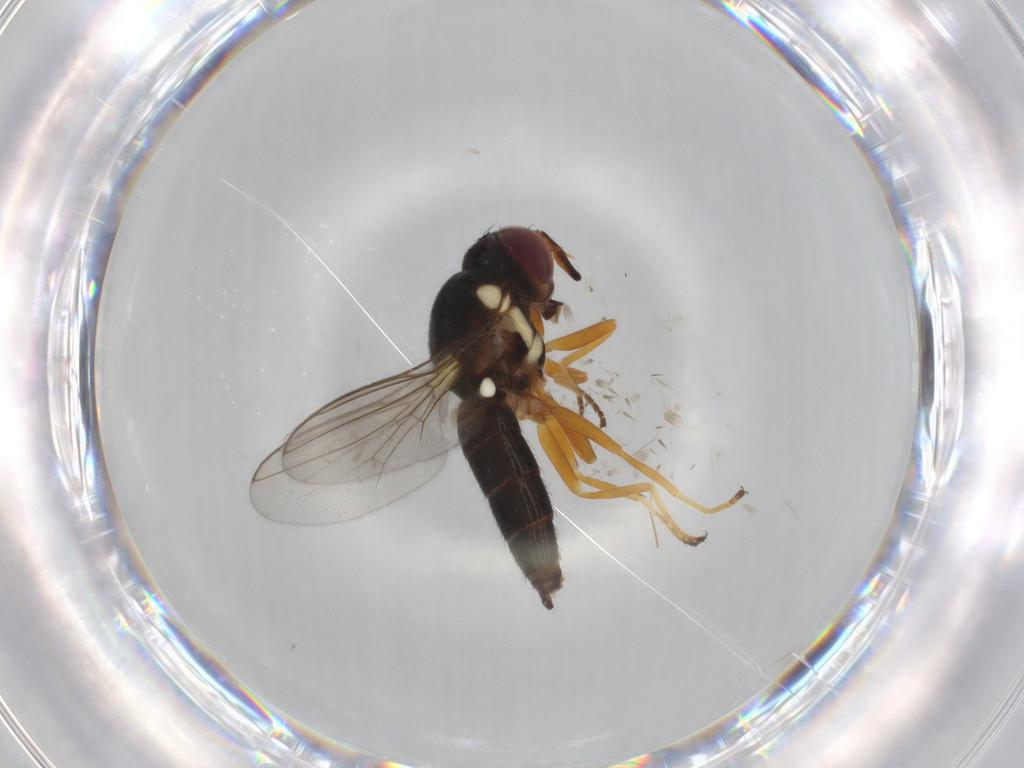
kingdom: Animalia
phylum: Arthropoda
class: Insecta
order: Diptera
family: Chloropidae
